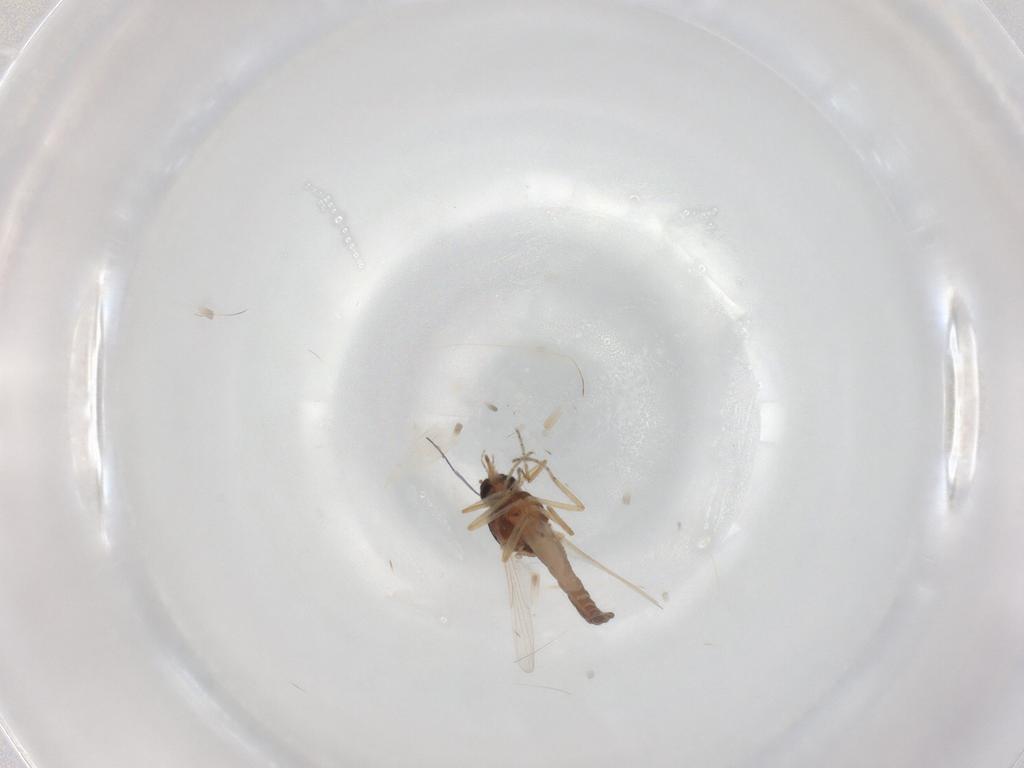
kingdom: Animalia
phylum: Arthropoda
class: Insecta
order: Diptera
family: Ceratopogonidae
